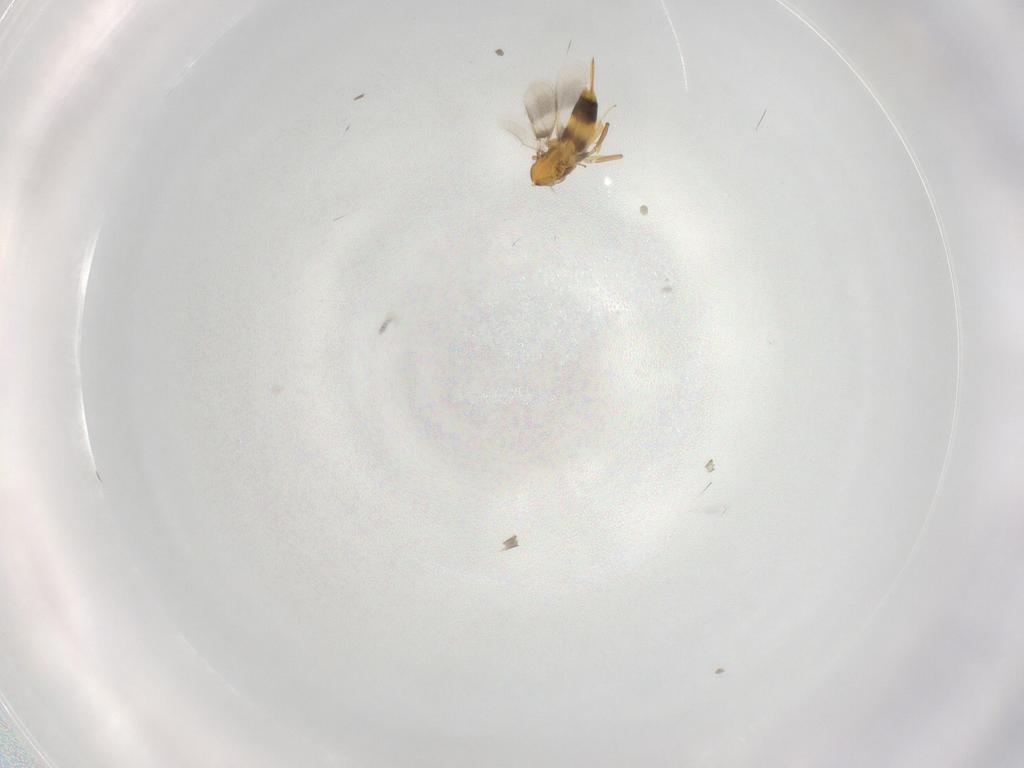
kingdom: Animalia
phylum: Arthropoda
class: Insecta
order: Hymenoptera
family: Aphelinidae
